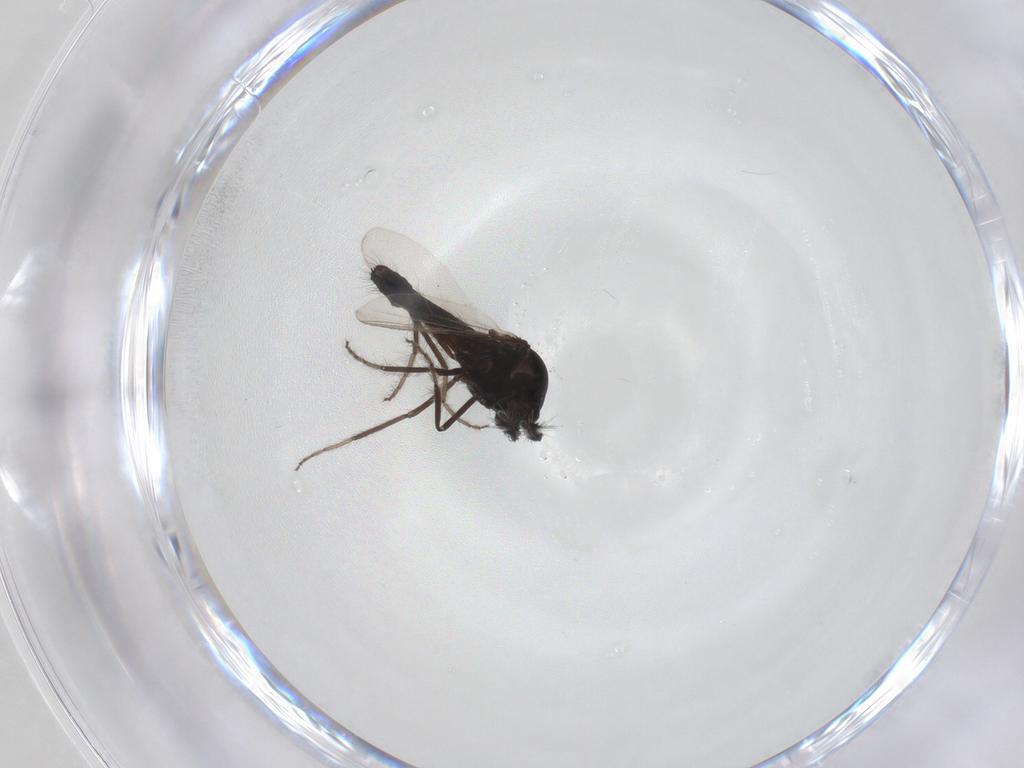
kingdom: Animalia
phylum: Arthropoda
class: Insecta
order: Diptera
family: Ceratopogonidae
